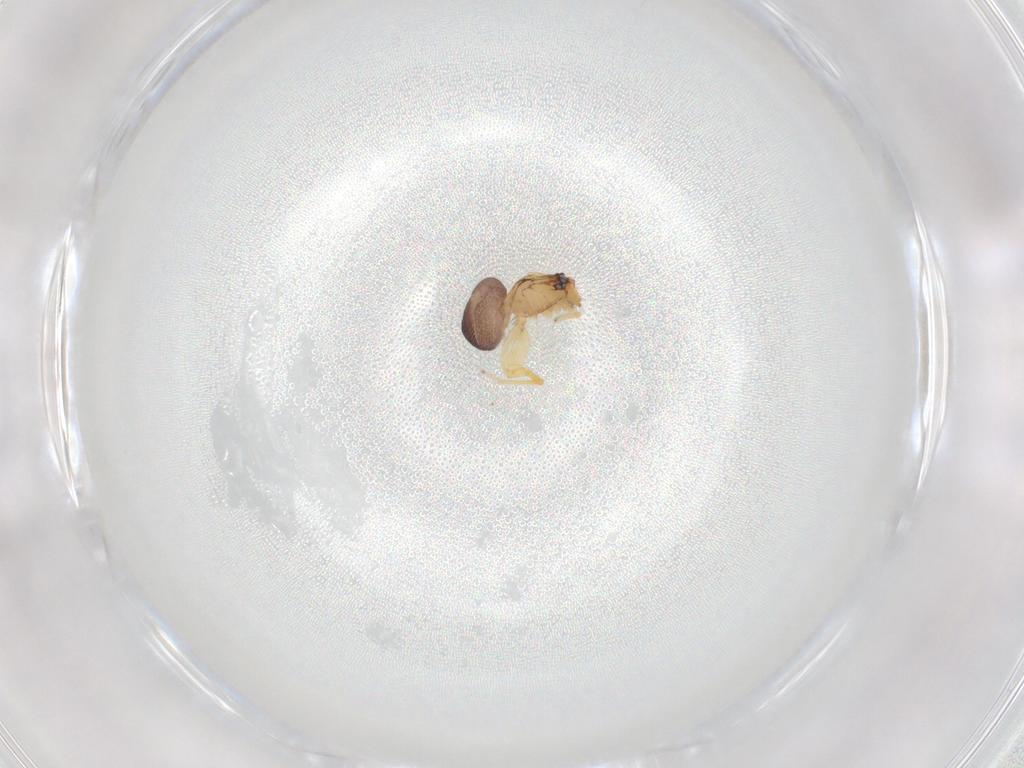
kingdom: Animalia
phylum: Arthropoda
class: Arachnida
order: Araneae
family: Dictynidae
